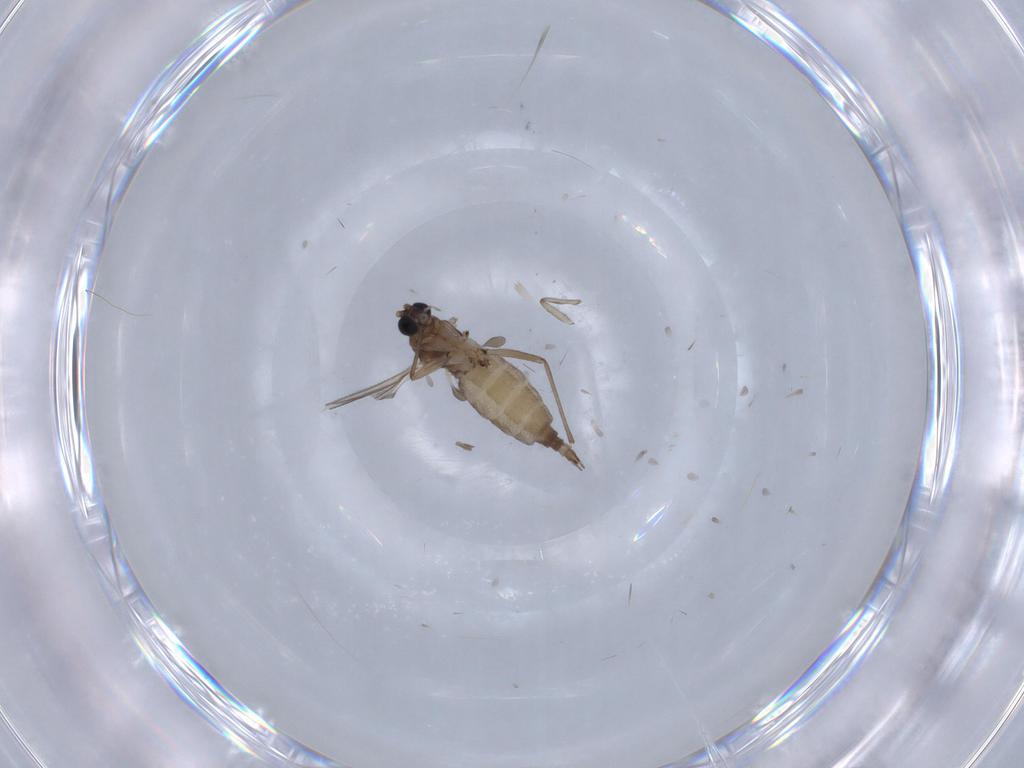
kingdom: Animalia
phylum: Arthropoda
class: Insecta
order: Diptera
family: Sciaridae
